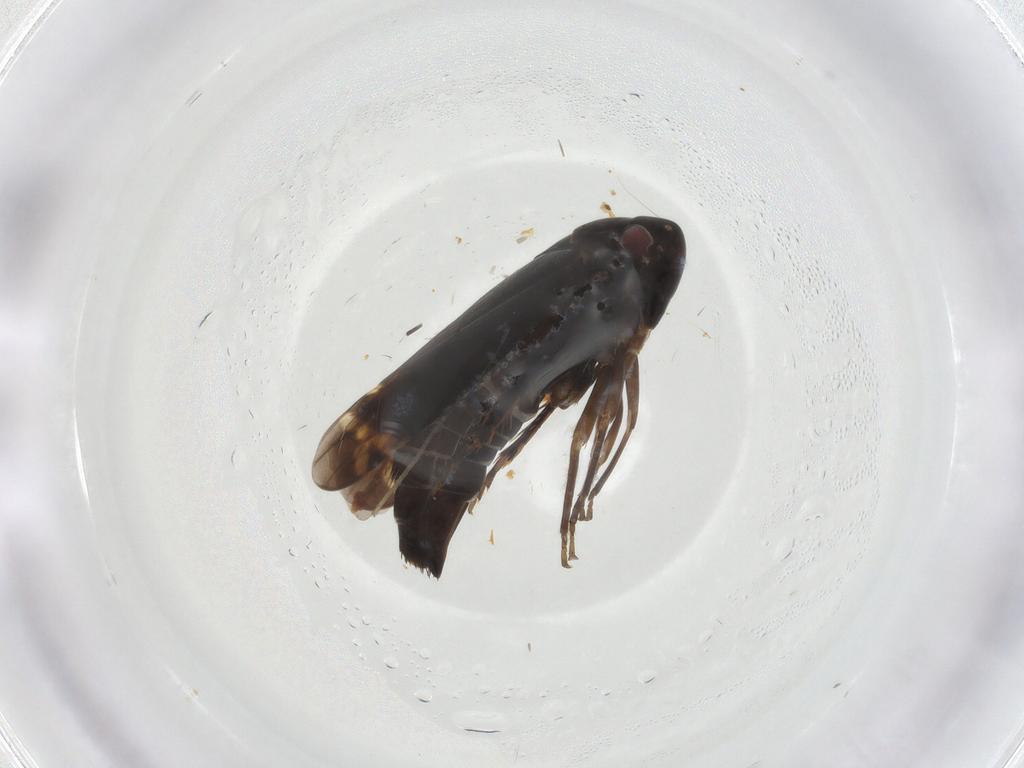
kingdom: Animalia
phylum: Arthropoda
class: Insecta
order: Hemiptera
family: Cicadellidae
